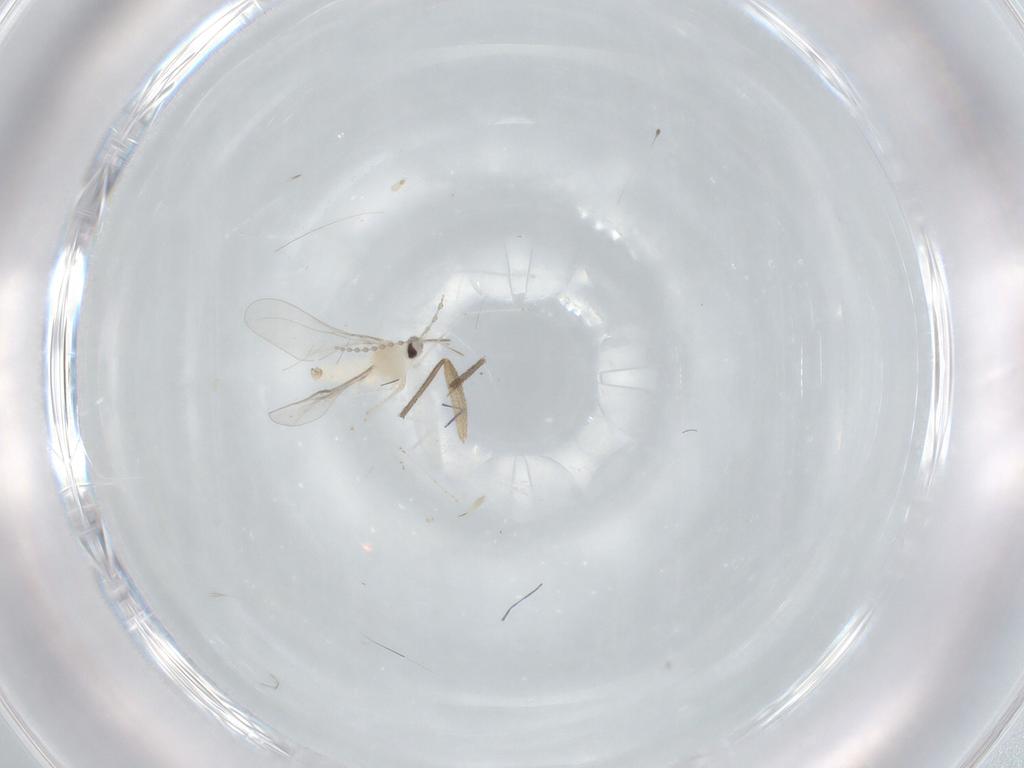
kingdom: Animalia
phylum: Arthropoda
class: Insecta
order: Diptera
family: Cecidomyiidae
